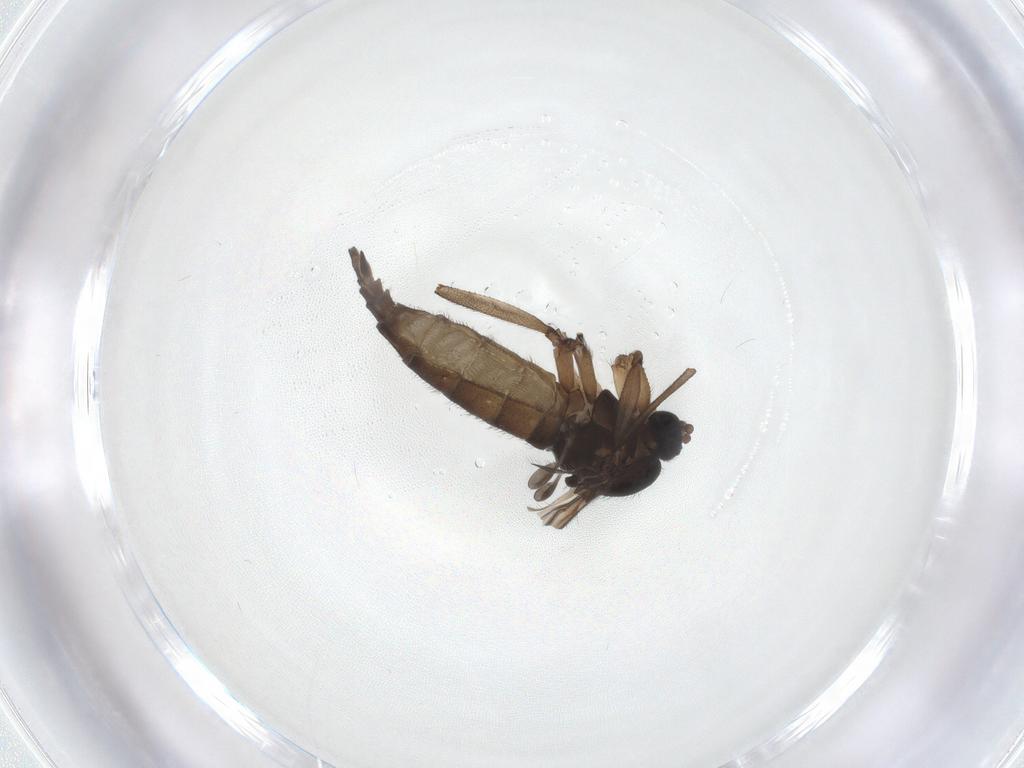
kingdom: Animalia
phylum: Arthropoda
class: Insecta
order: Diptera
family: Sciaridae
